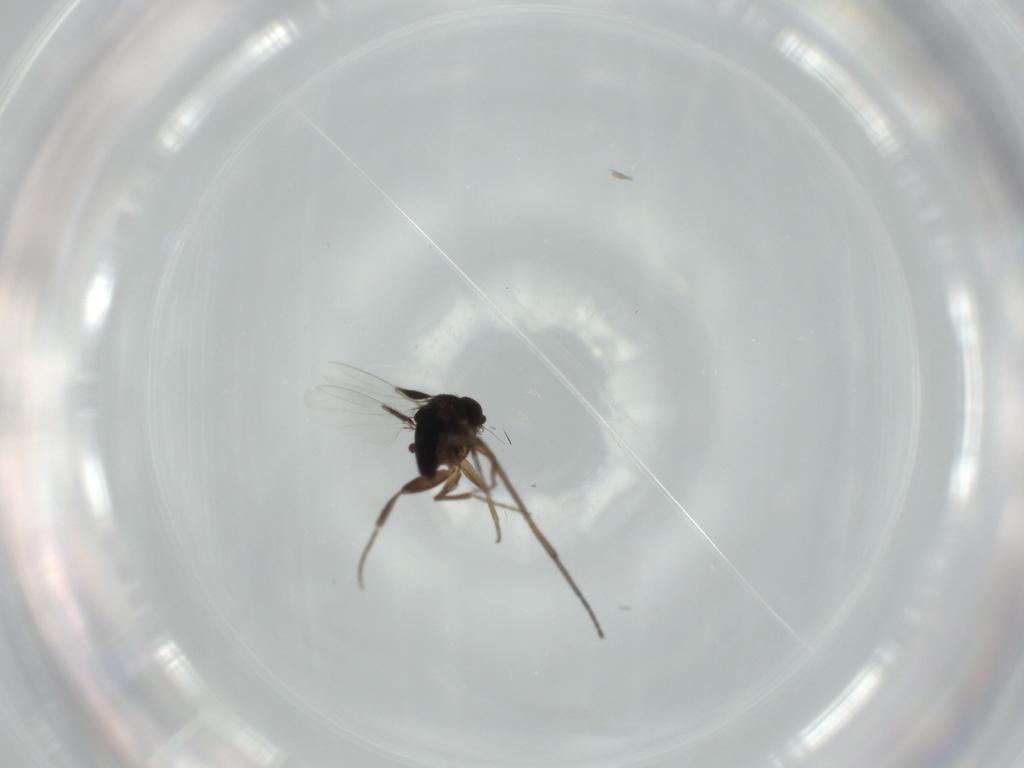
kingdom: Animalia
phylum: Arthropoda
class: Insecta
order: Diptera
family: Phoridae
